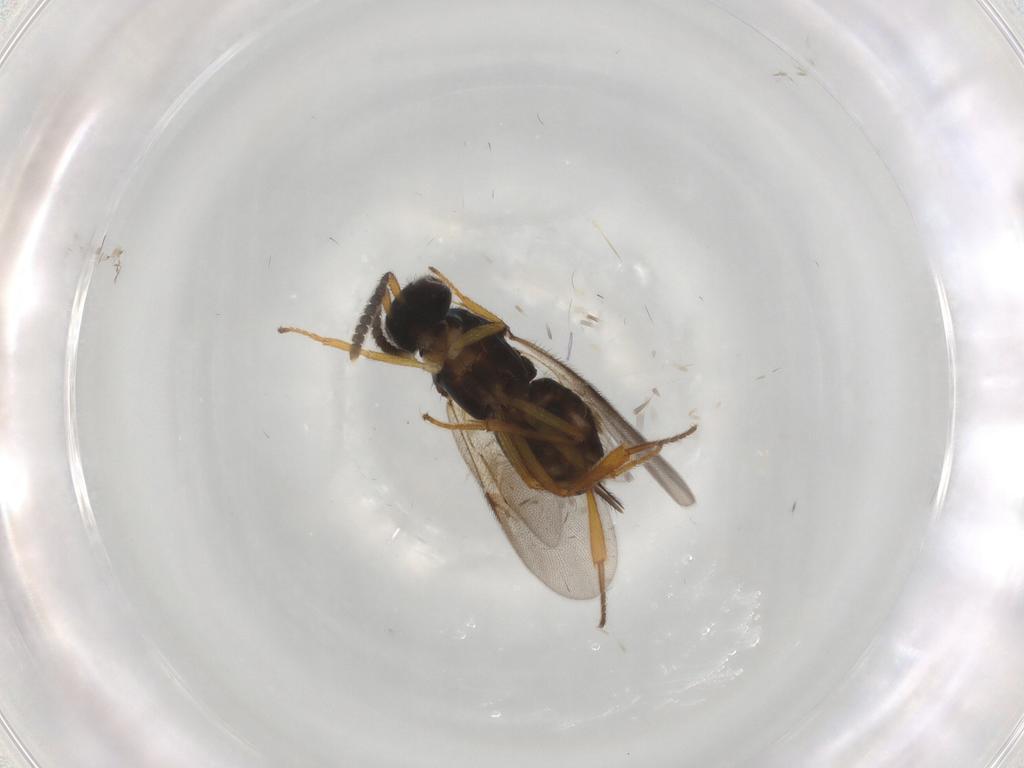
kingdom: Animalia
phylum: Arthropoda
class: Insecta
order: Hymenoptera
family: Encyrtidae
